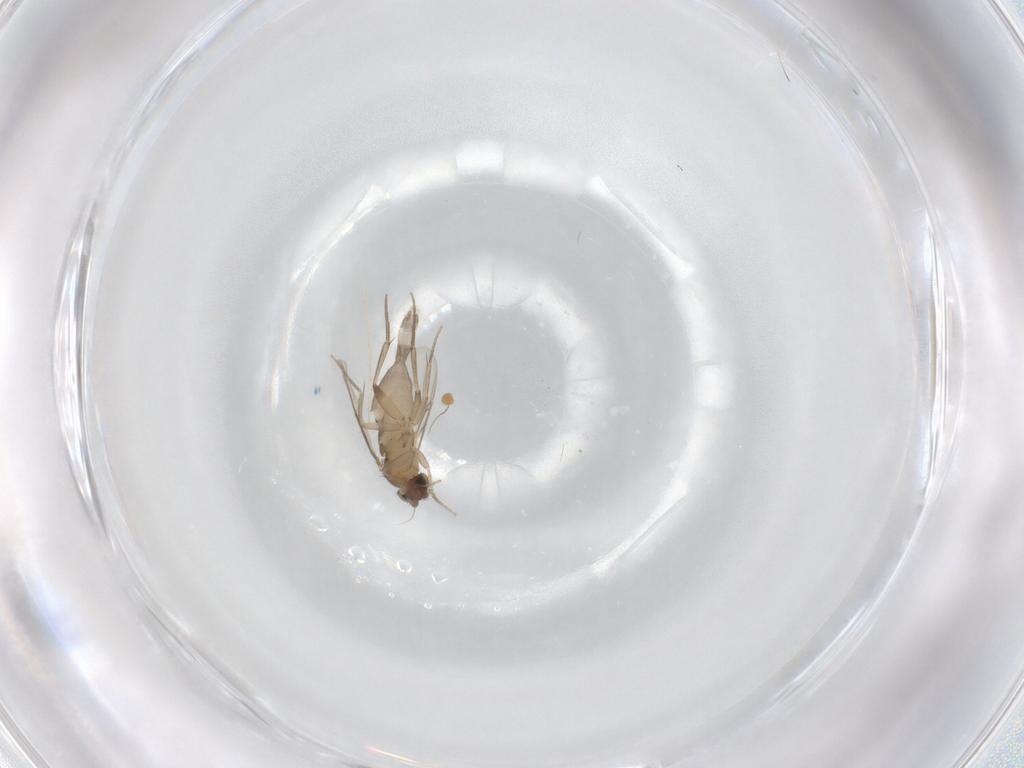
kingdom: Animalia
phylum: Arthropoda
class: Insecta
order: Diptera
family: Phoridae
